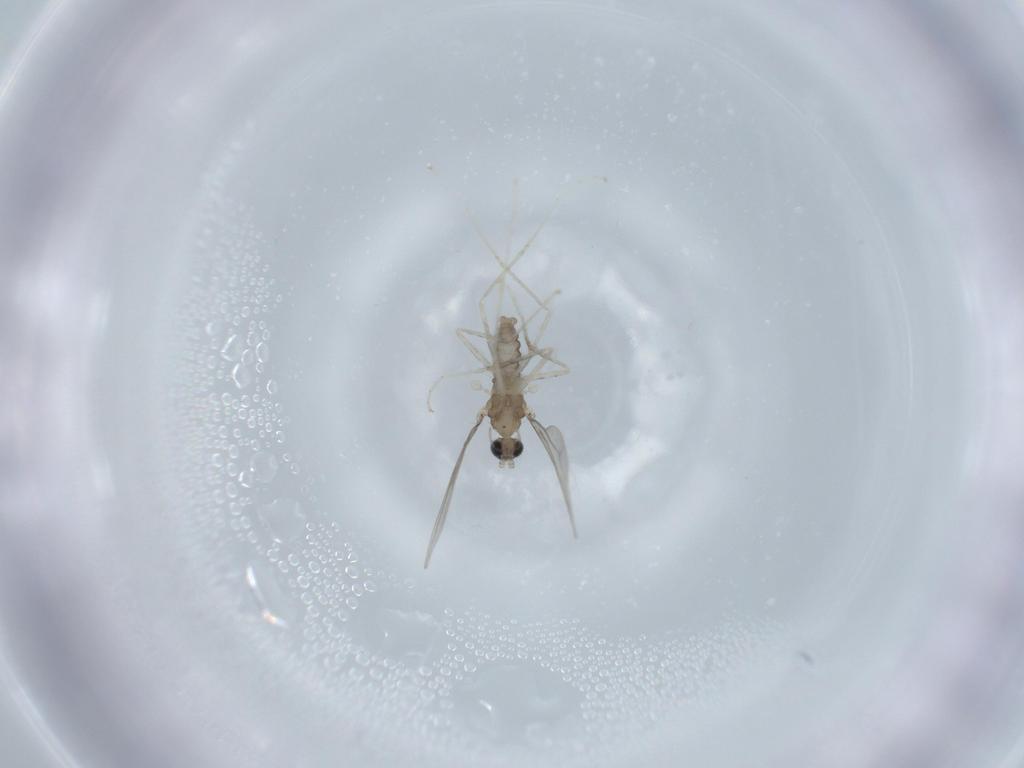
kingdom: Animalia
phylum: Arthropoda
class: Insecta
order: Diptera
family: Cecidomyiidae
